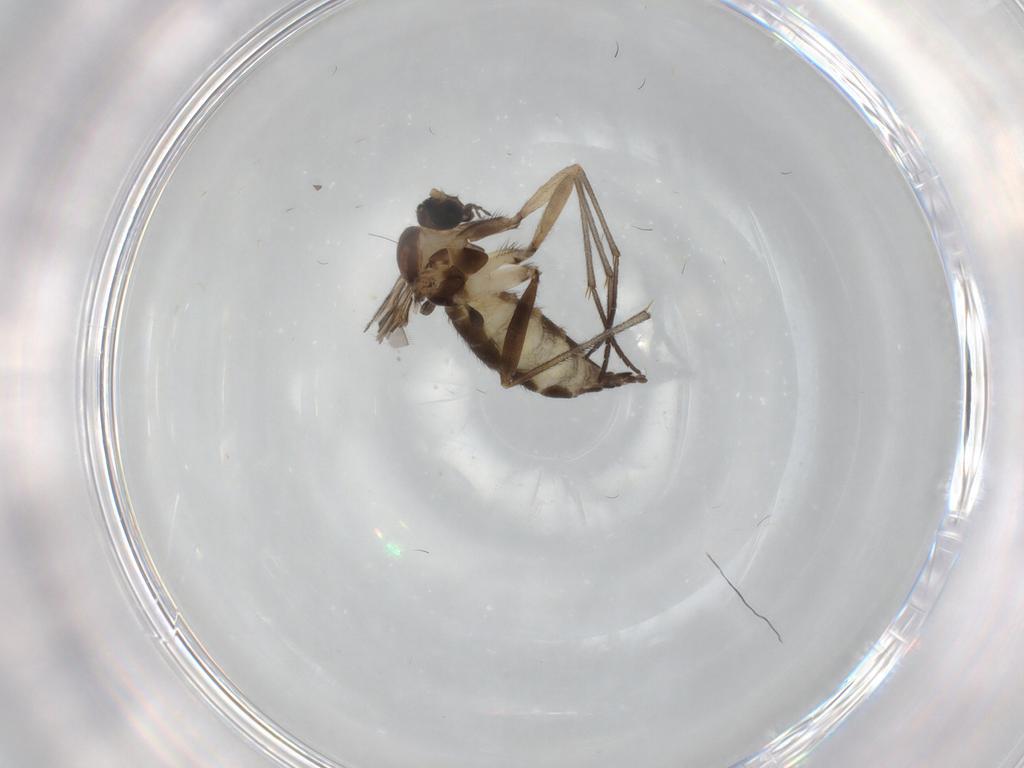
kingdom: Animalia
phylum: Arthropoda
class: Insecta
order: Diptera
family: Sciaridae
